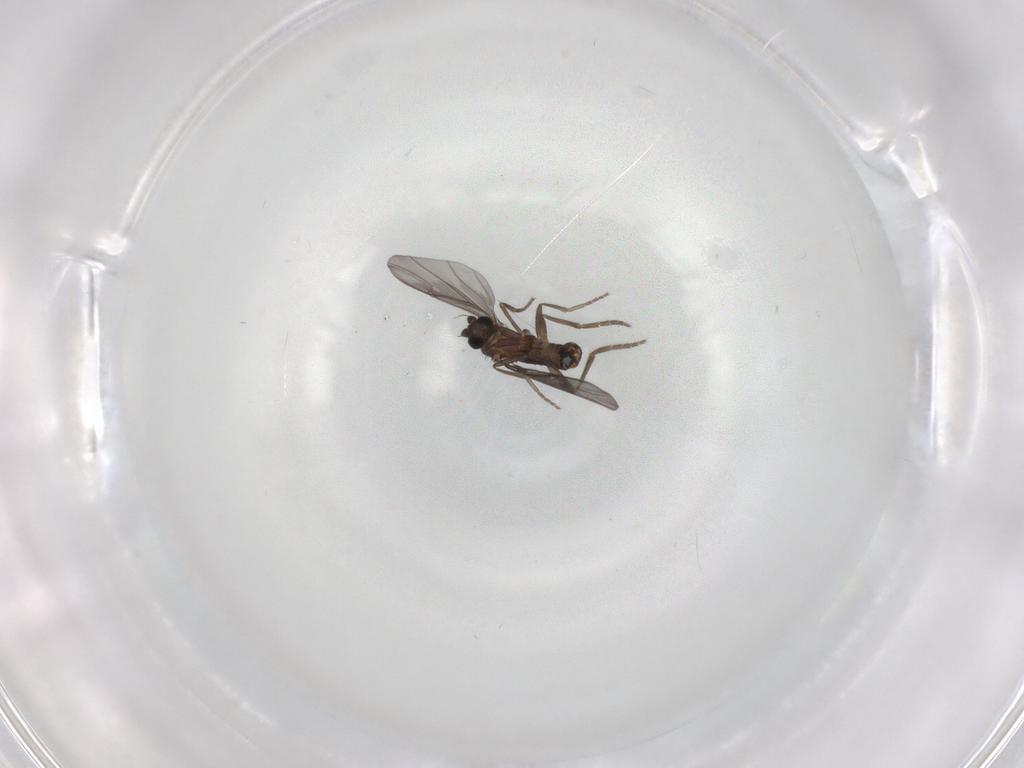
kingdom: Animalia
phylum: Arthropoda
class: Insecta
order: Diptera
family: Phoridae
